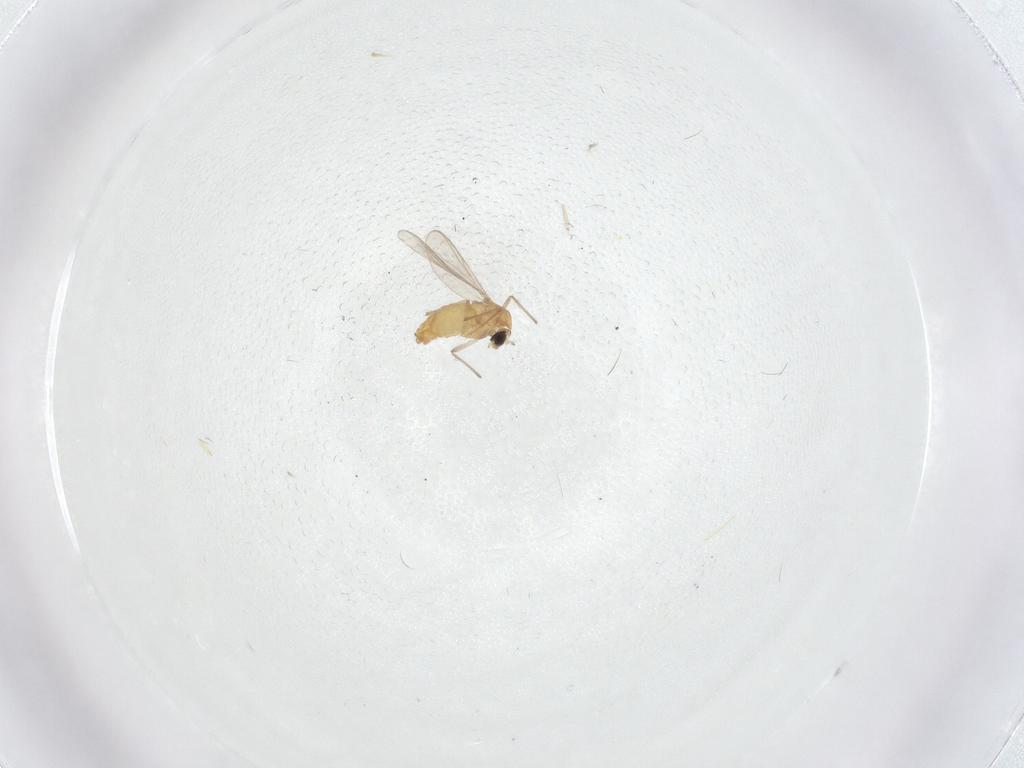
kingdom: Animalia
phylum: Arthropoda
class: Insecta
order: Diptera
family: Chironomidae
